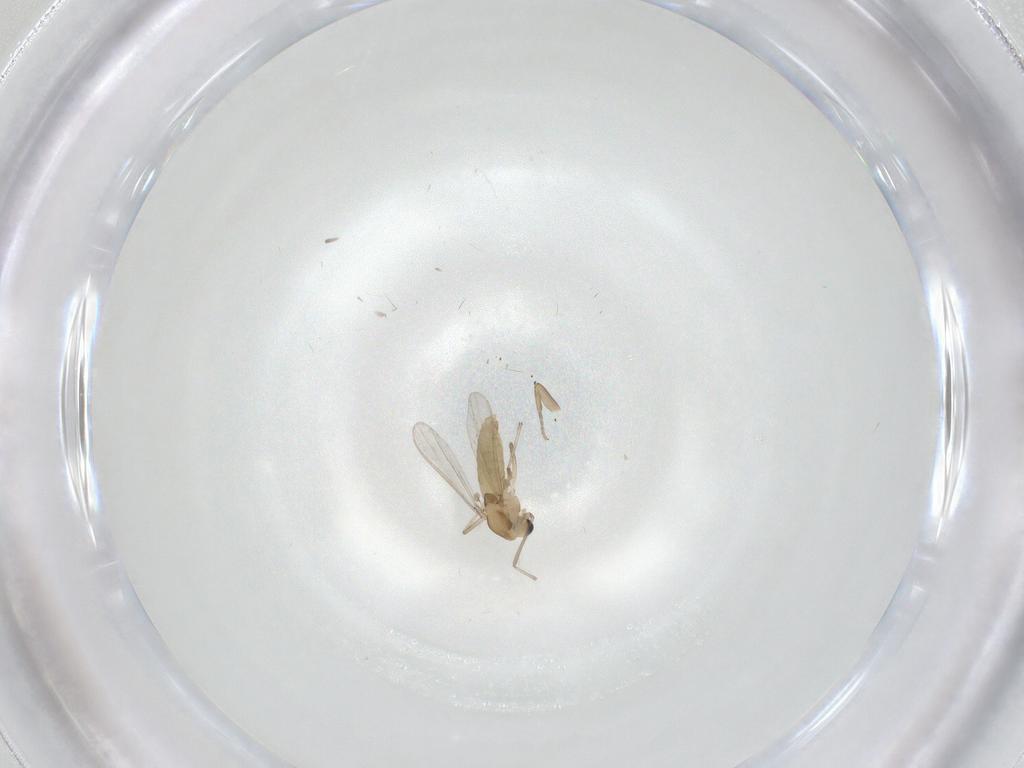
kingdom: Animalia
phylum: Arthropoda
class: Insecta
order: Diptera
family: Chironomidae
